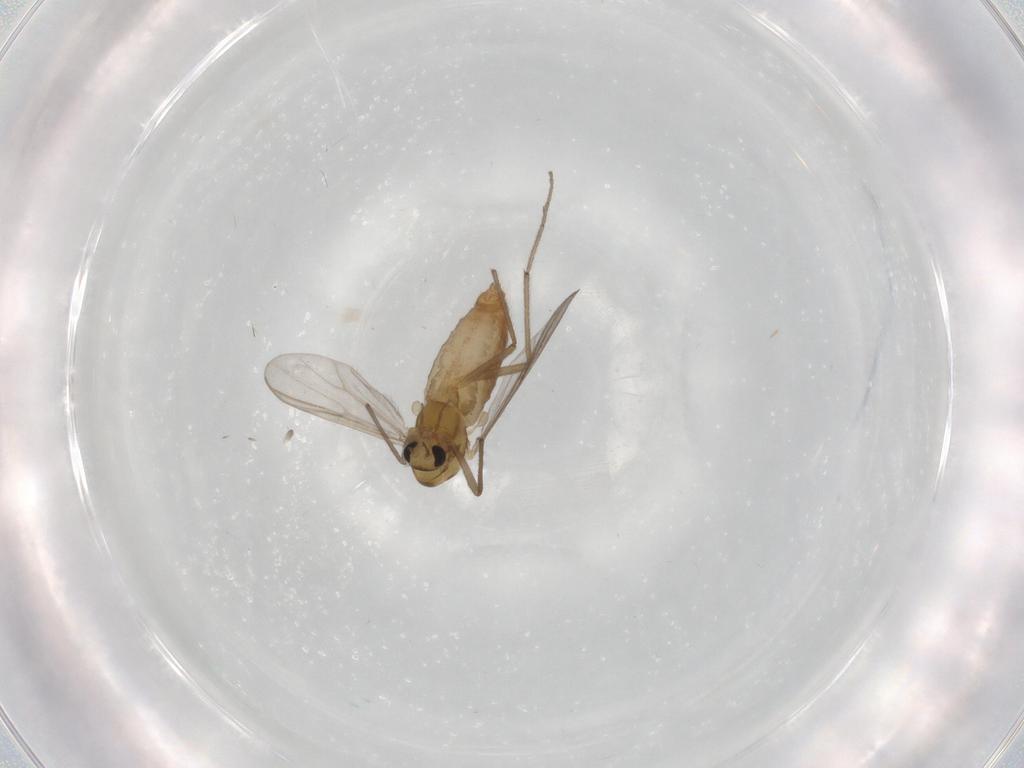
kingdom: Animalia
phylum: Arthropoda
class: Insecta
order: Diptera
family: Chironomidae
